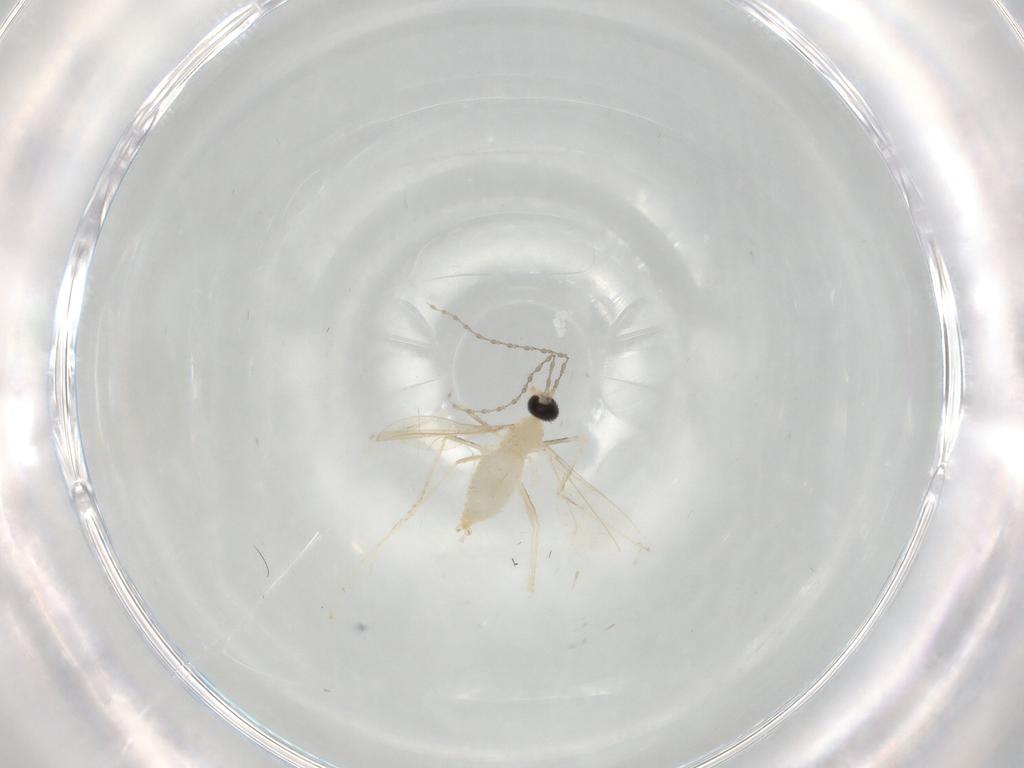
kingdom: Animalia
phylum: Arthropoda
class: Insecta
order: Diptera
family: Cecidomyiidae
